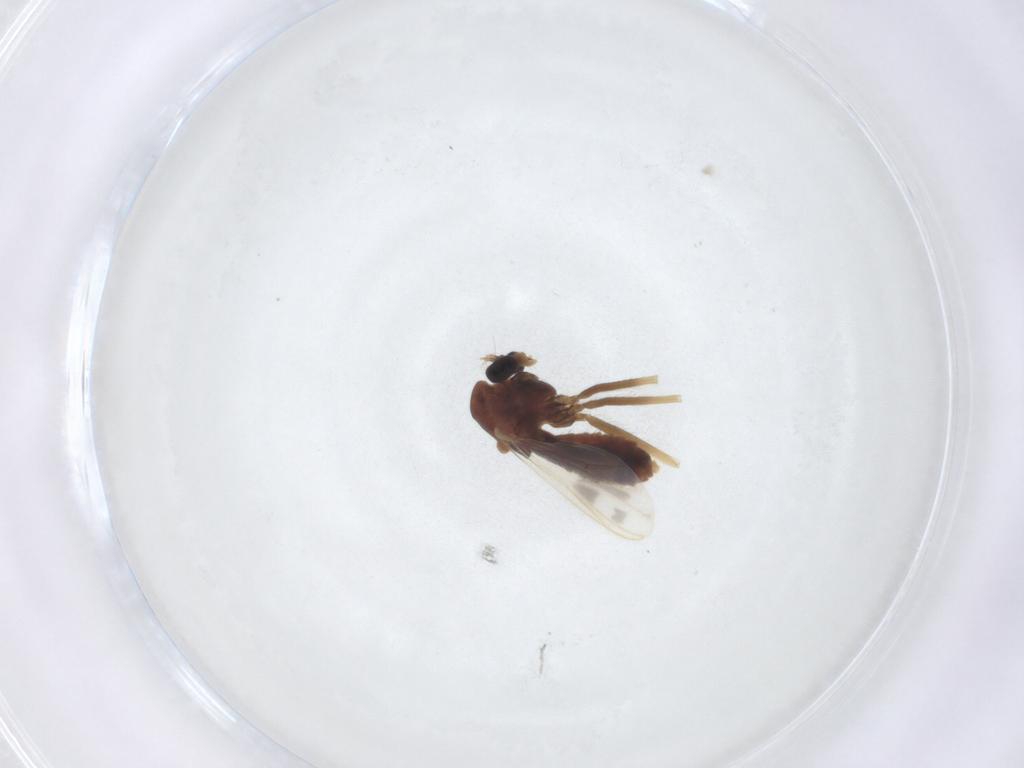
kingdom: Animalia
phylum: Arthropoda
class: Insecta
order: Diptera
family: Chironomidae
